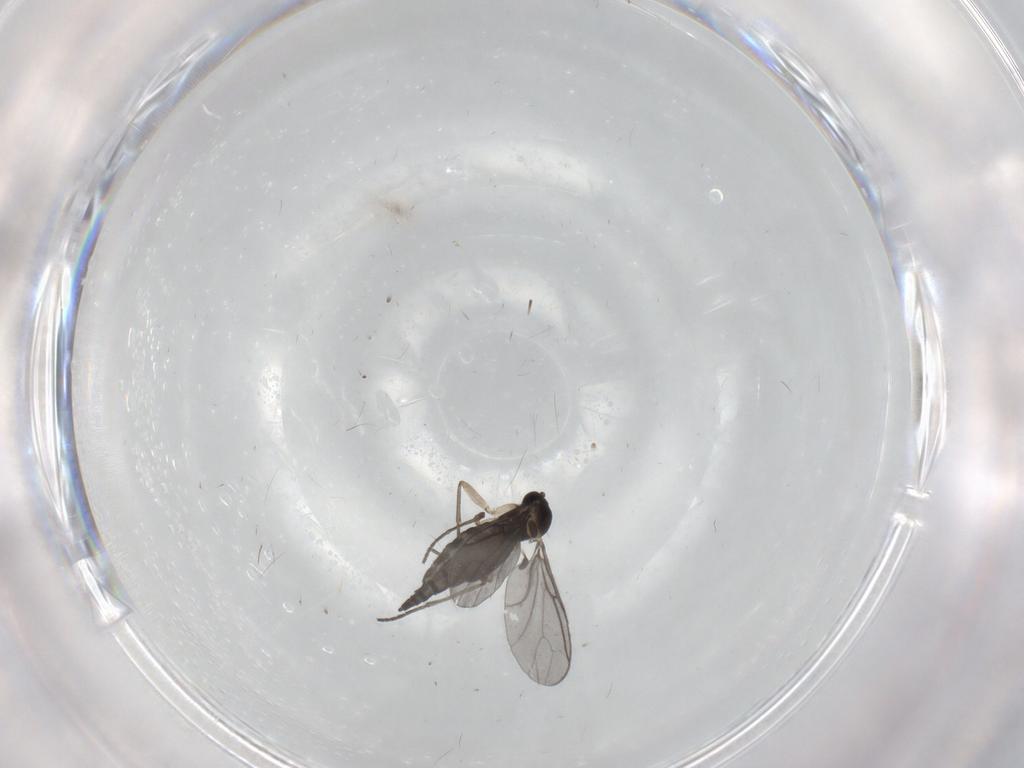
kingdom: Animalia
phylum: Arthropoda
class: Insecta
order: Diptera
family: Sciaridae
